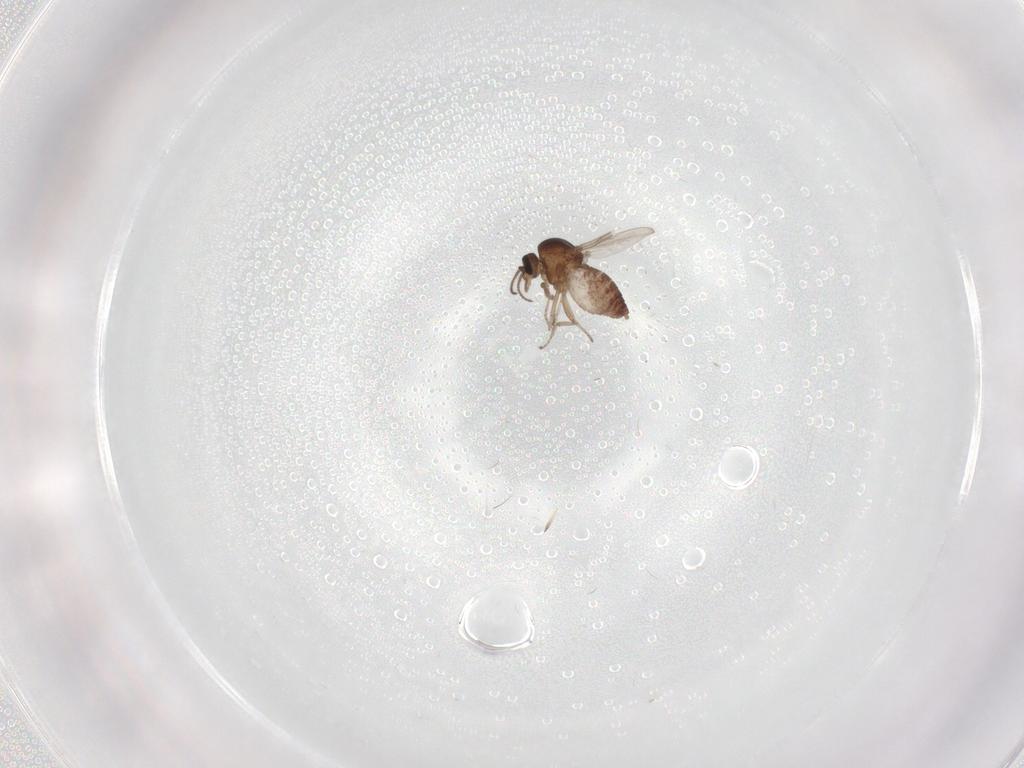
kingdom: Animalia
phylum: Arthropoda
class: Insecta
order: Diptera
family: Ceratopogonidae
